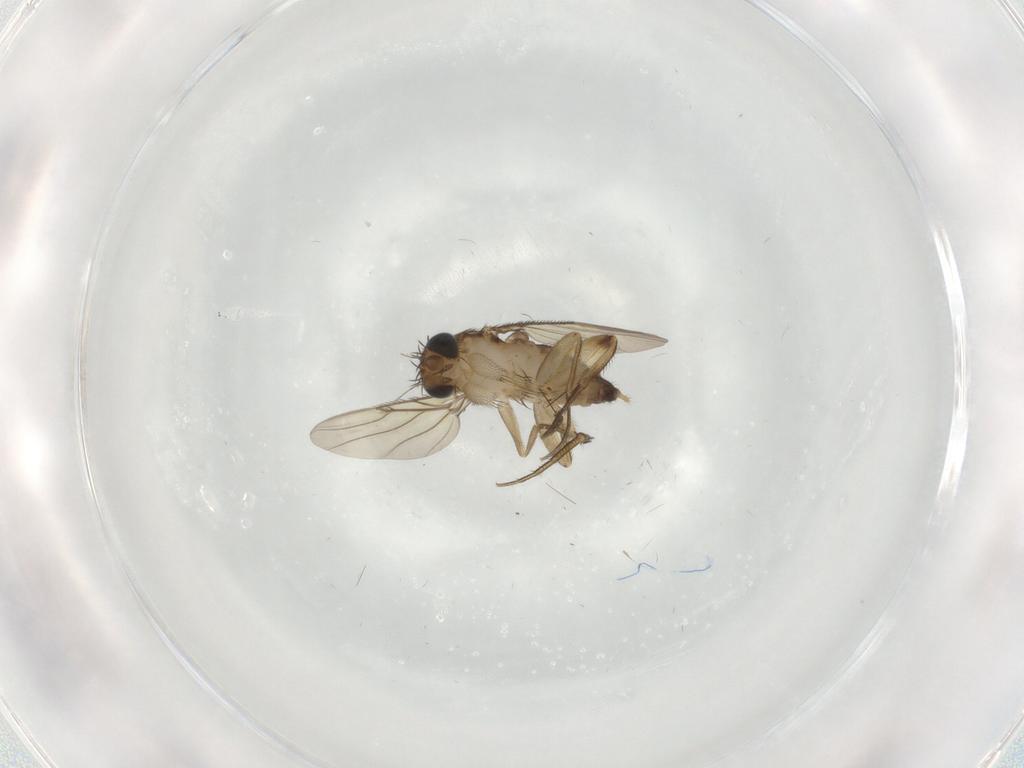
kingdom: Animalia
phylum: Arthropoda
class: Insecta
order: Diptera
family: Phoridae
